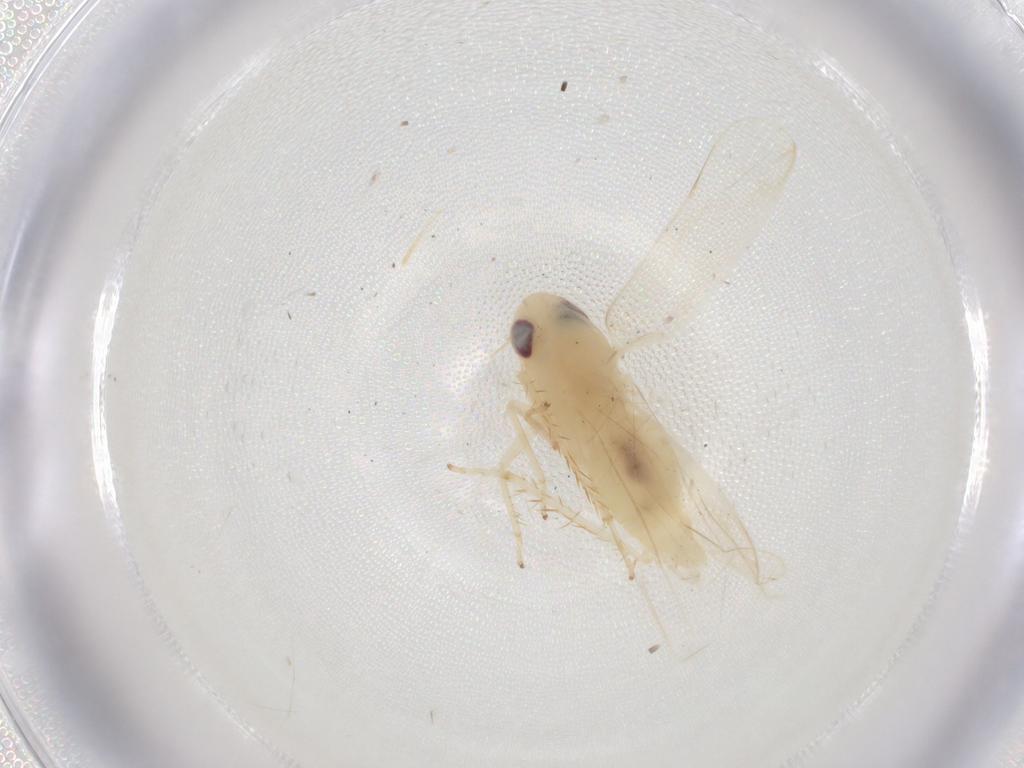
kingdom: Animalia
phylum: Arthropoda
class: Insecta
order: Hemiptera
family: Cicadellidae
